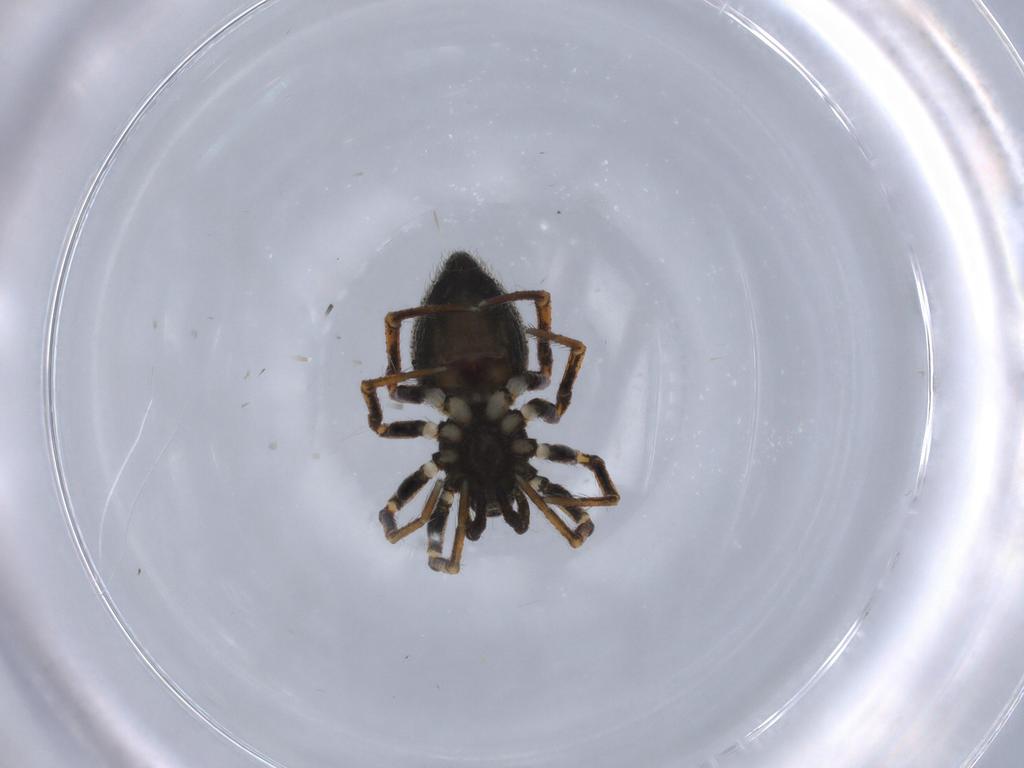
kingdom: Animalia
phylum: Arthropoda
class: Arachnida
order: Araneae
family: Theridiidae
